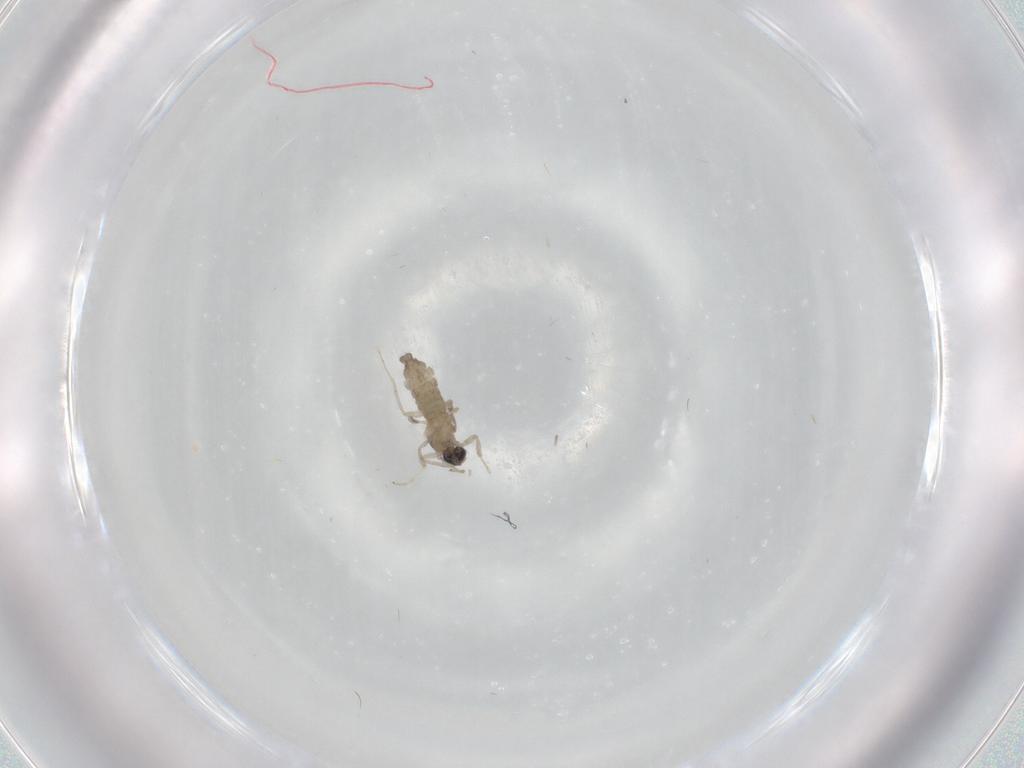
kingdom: Animalia
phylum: Arthropoda
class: Insecta
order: Diptera
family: Cecidomyiidae
